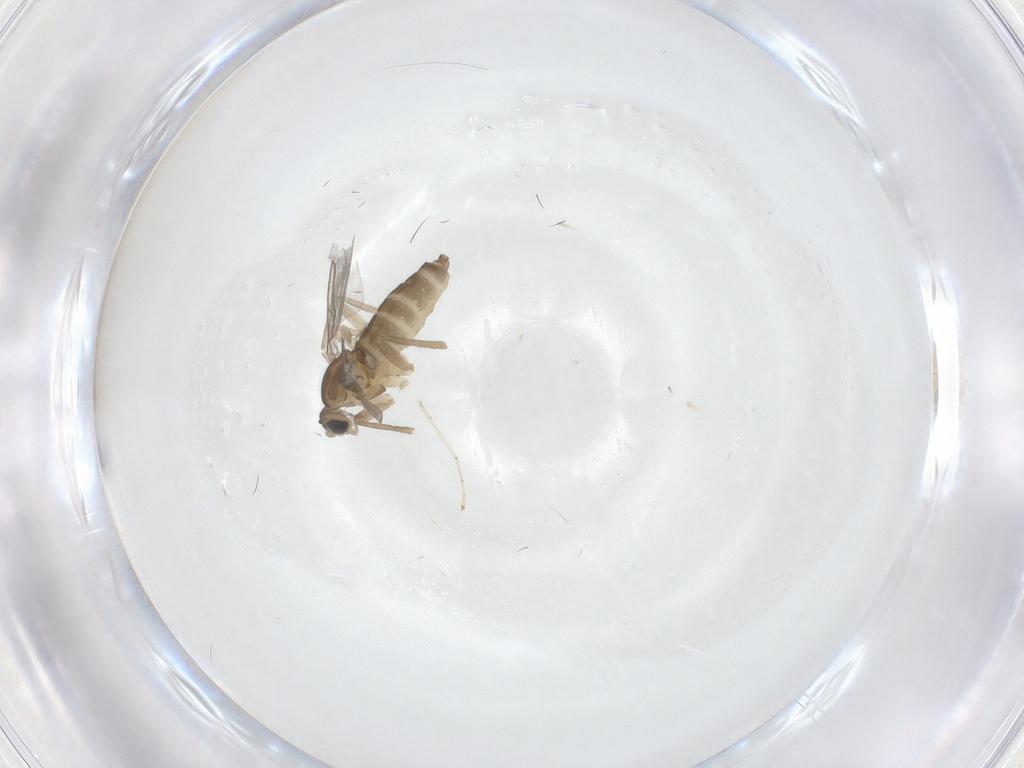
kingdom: Animalia
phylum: Arthropoda
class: Insecta
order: Diptera
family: Cecidomyiidae
